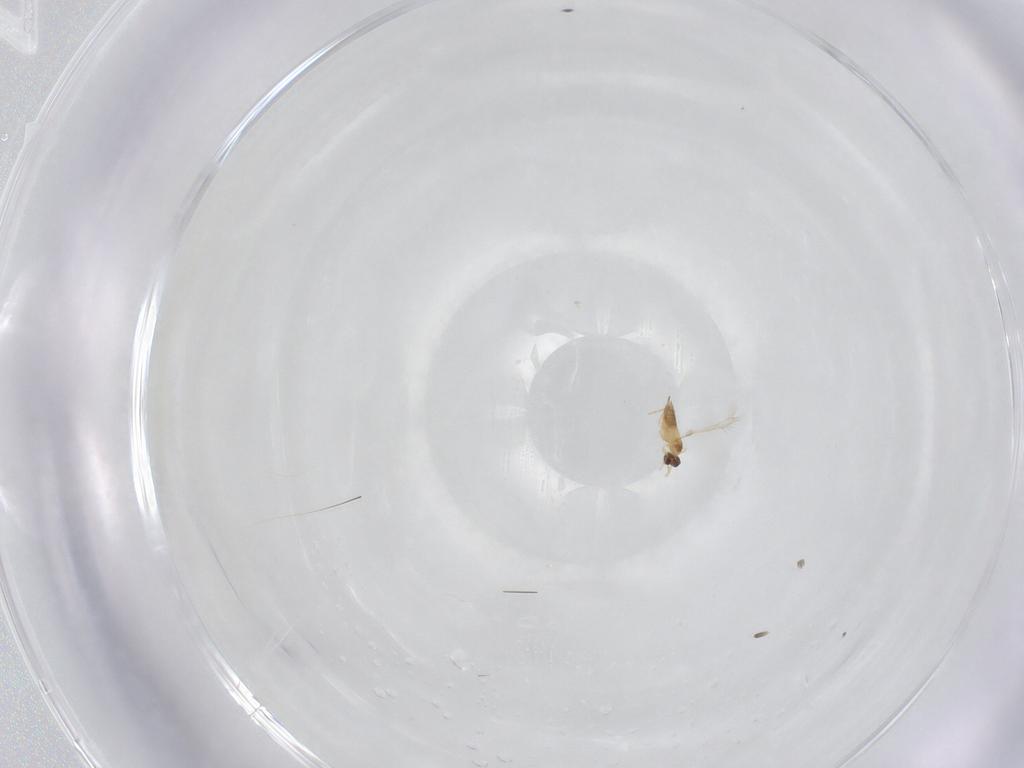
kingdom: Animalia
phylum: Arthropoda
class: Insecta
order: Hymenoptera
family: Mymaridae
